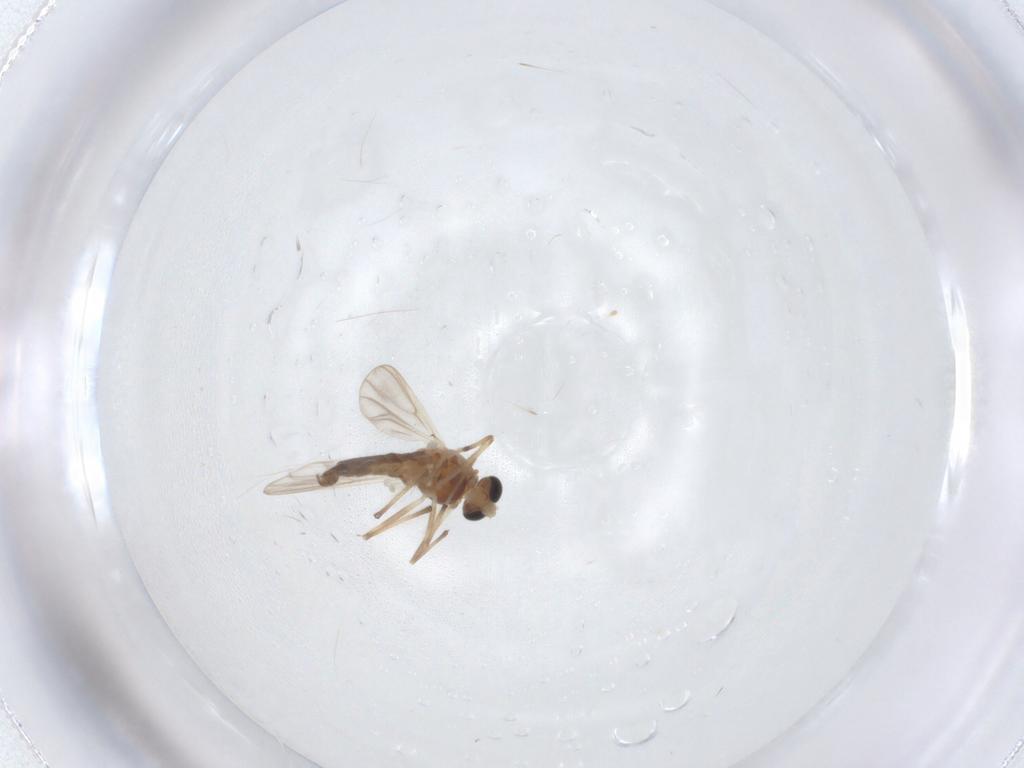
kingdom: Animalia
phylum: Arthropoda
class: Insecta
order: Diptera
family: Chironomidae
